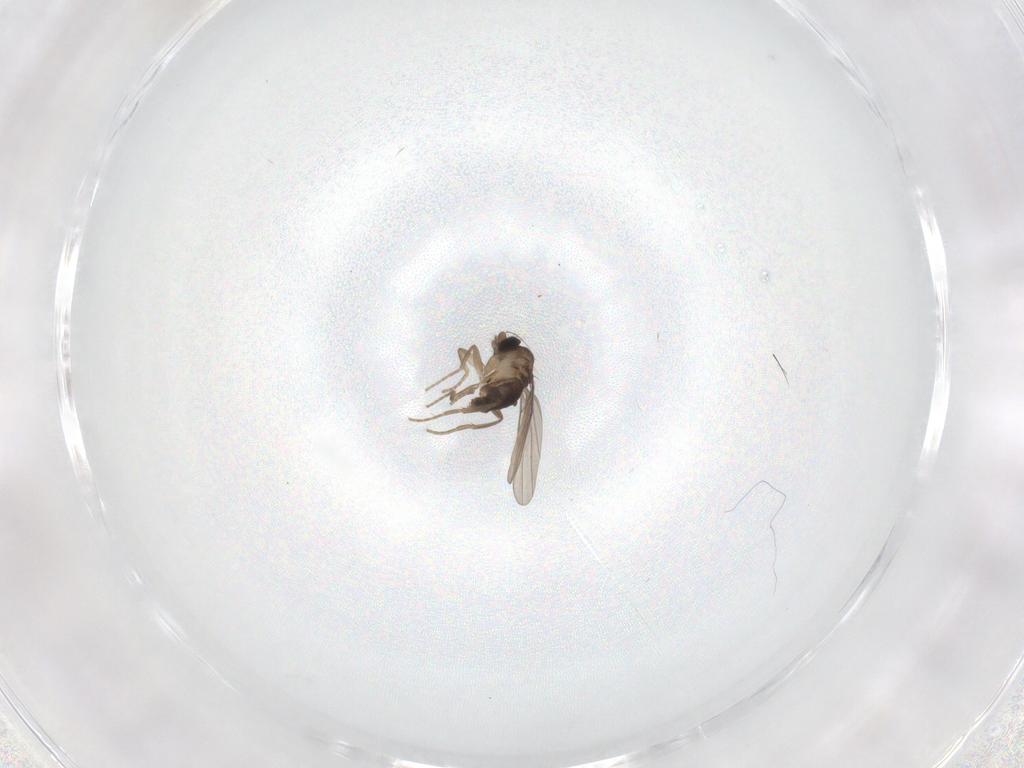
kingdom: Animalia
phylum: Arthropoda
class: Insecta
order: Diptera
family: Phoridae
